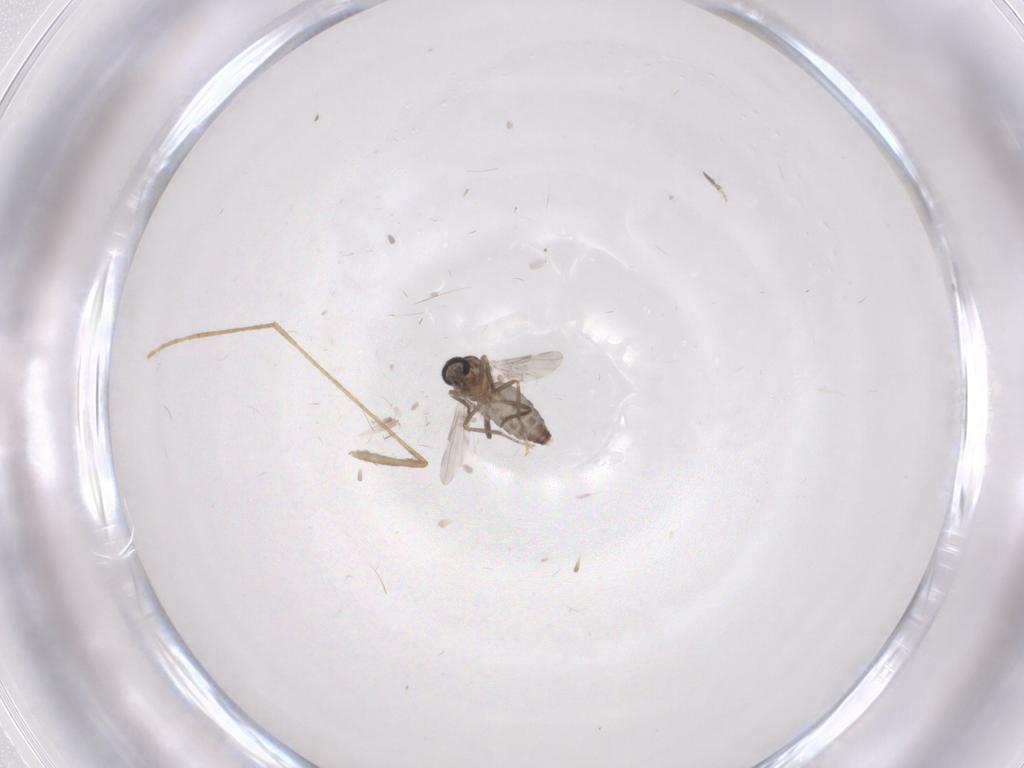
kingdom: Animalia
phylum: Arthropoda
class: Insecta
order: Diptera
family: Ceratopogonidae
